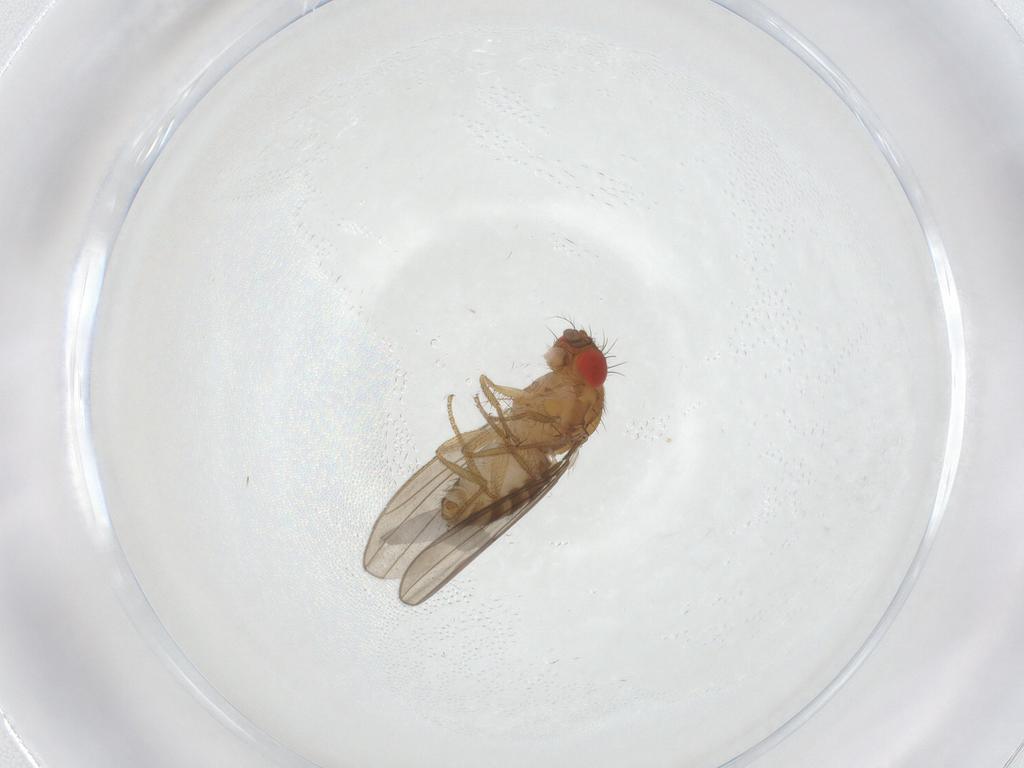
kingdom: Animalia
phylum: Arthropoda
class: Insecta
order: Diptera
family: Drosophilidae
